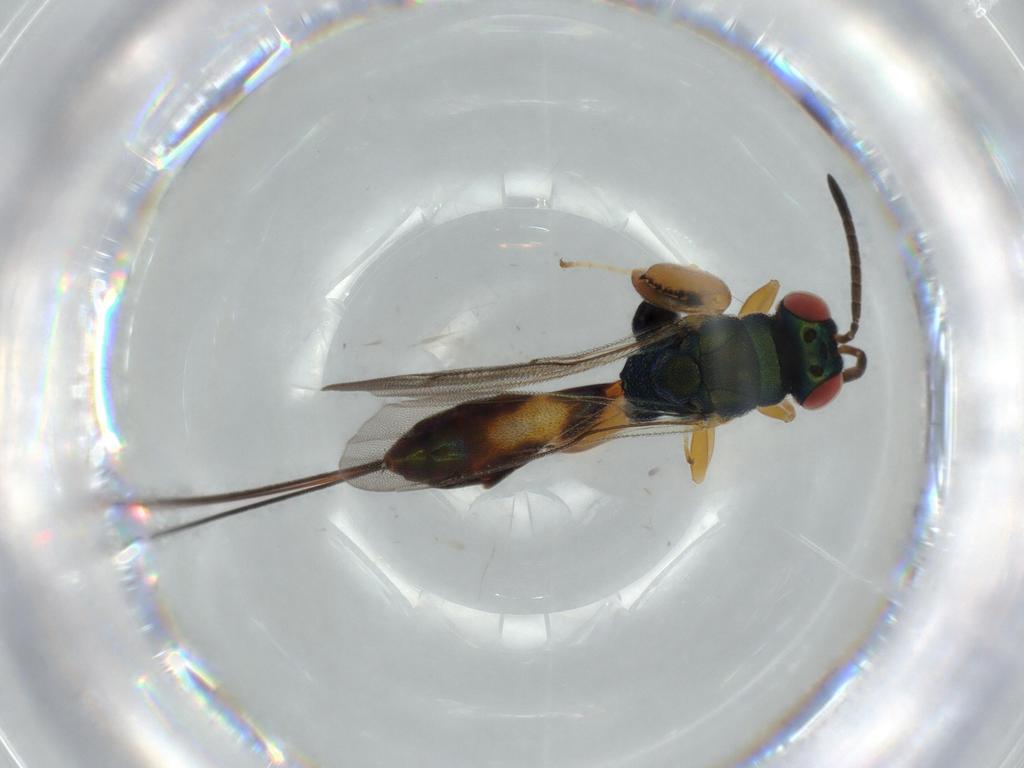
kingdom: Animalia
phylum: Arthropoda
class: Insecta
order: Hymenoptera
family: Torymidae
